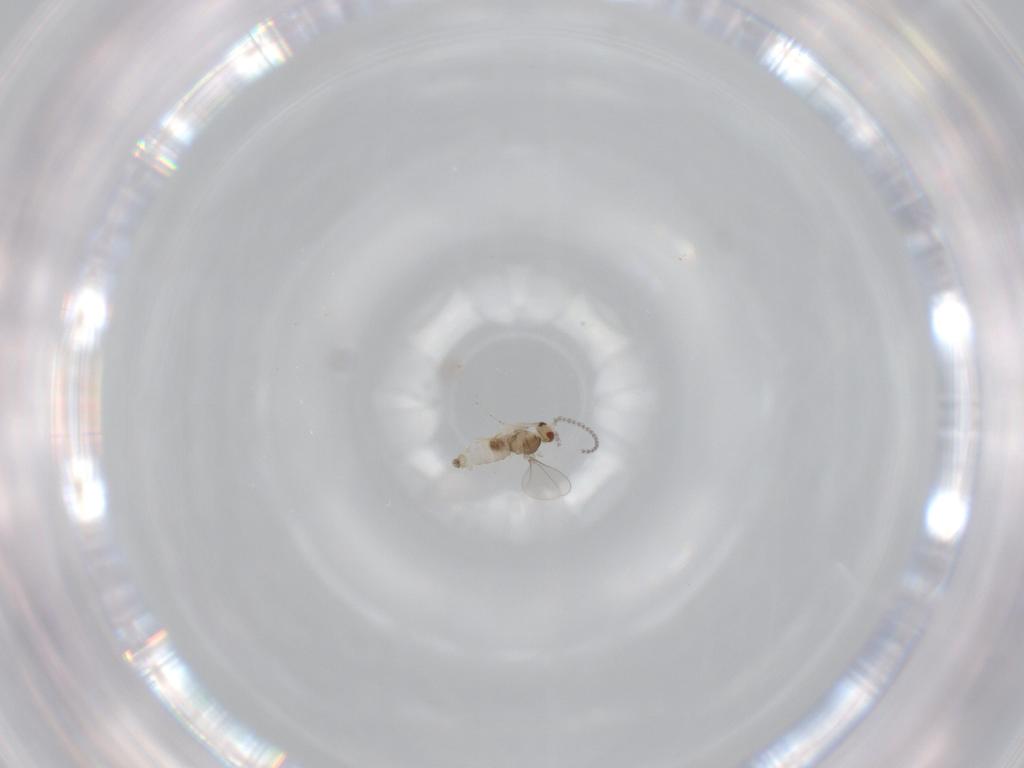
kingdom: Animalia
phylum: Arthropoda
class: Insecta
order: Diptera
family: Cecidomyiidae
